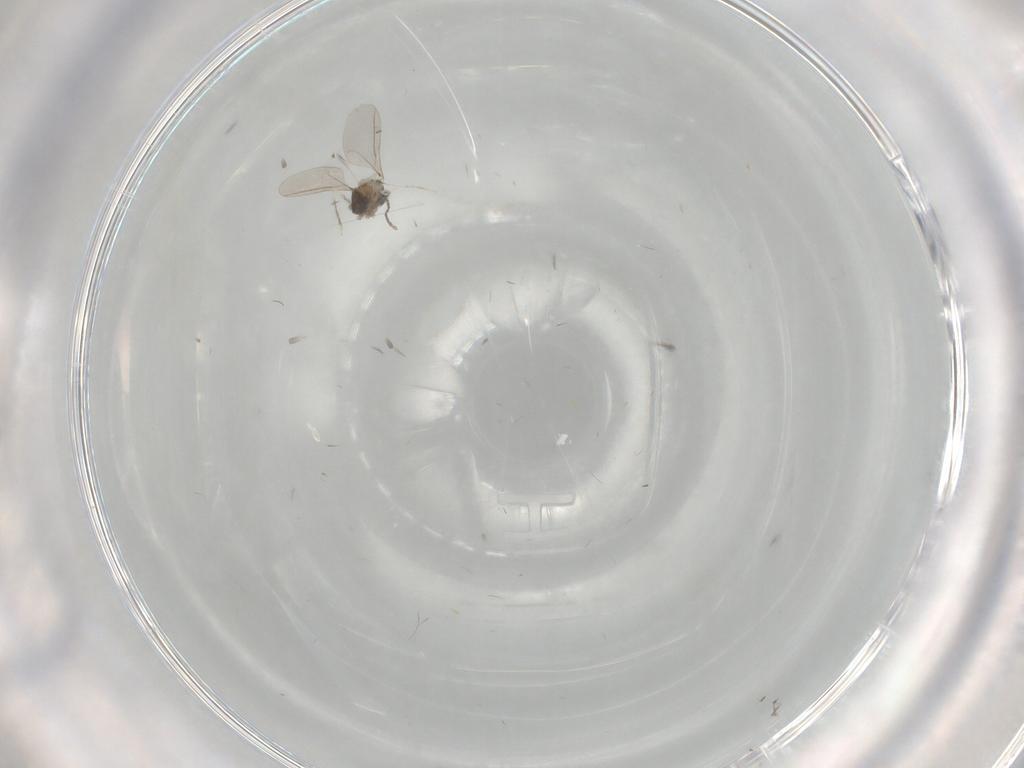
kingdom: Animalia
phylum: Arthropoda
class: Insecta
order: Diptera
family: Cecidomyiidae
